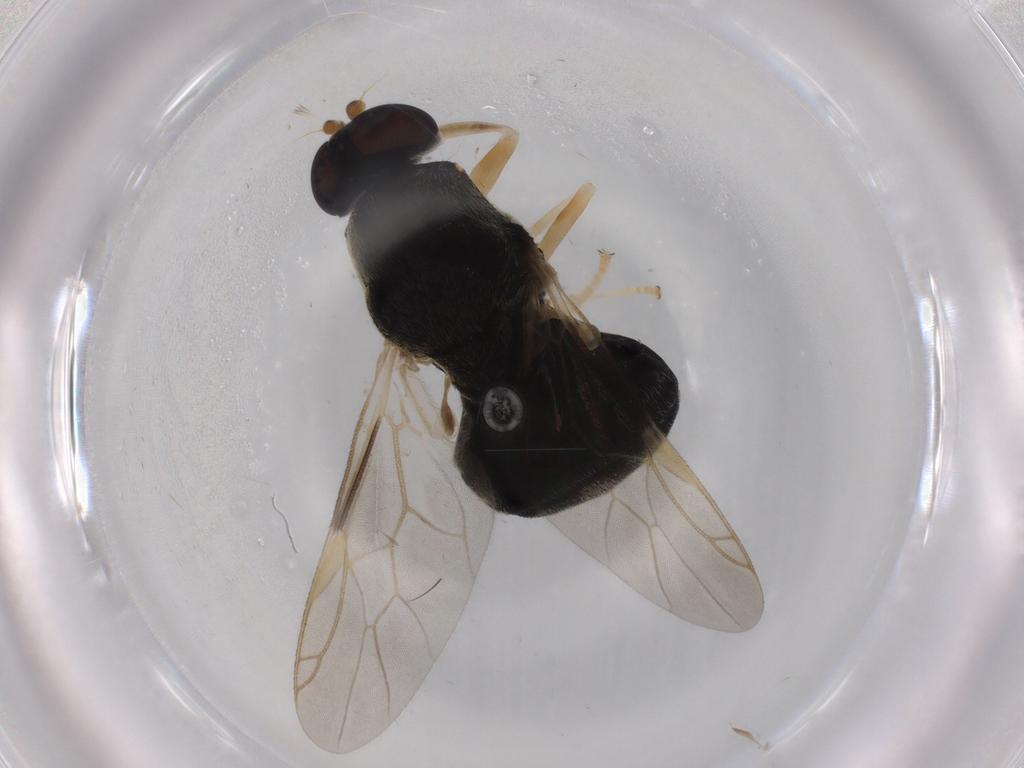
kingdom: Animalia
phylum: Arthropoda
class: Insecta
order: Diptera
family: Stratiomyidae
